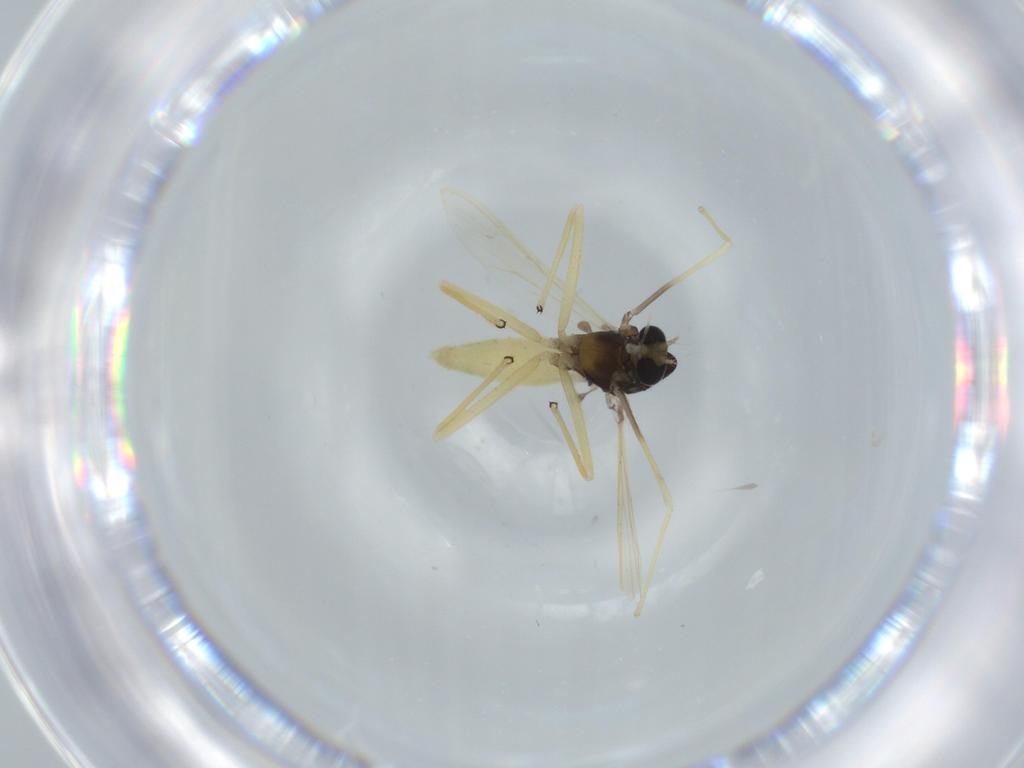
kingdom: Animalia
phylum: Arthropoda
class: Insecta
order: Diptera
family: Chironomidae
